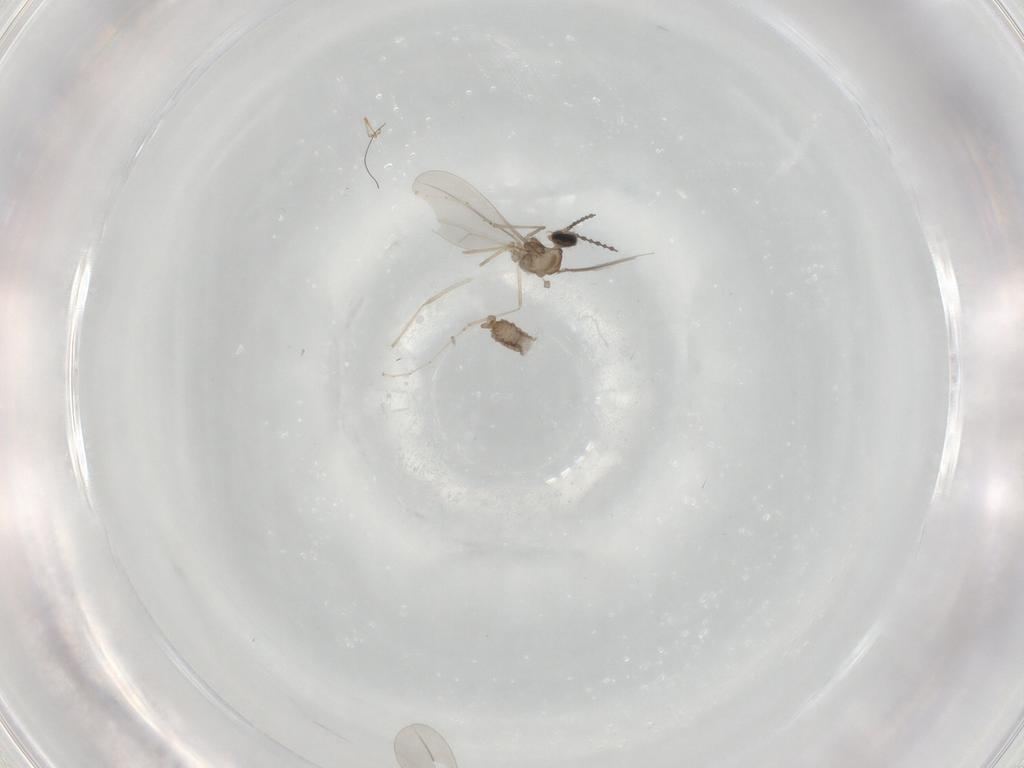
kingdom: Animalia
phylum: Arthropoda
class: Insecta
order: Diptera
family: Cecidomyiidae
